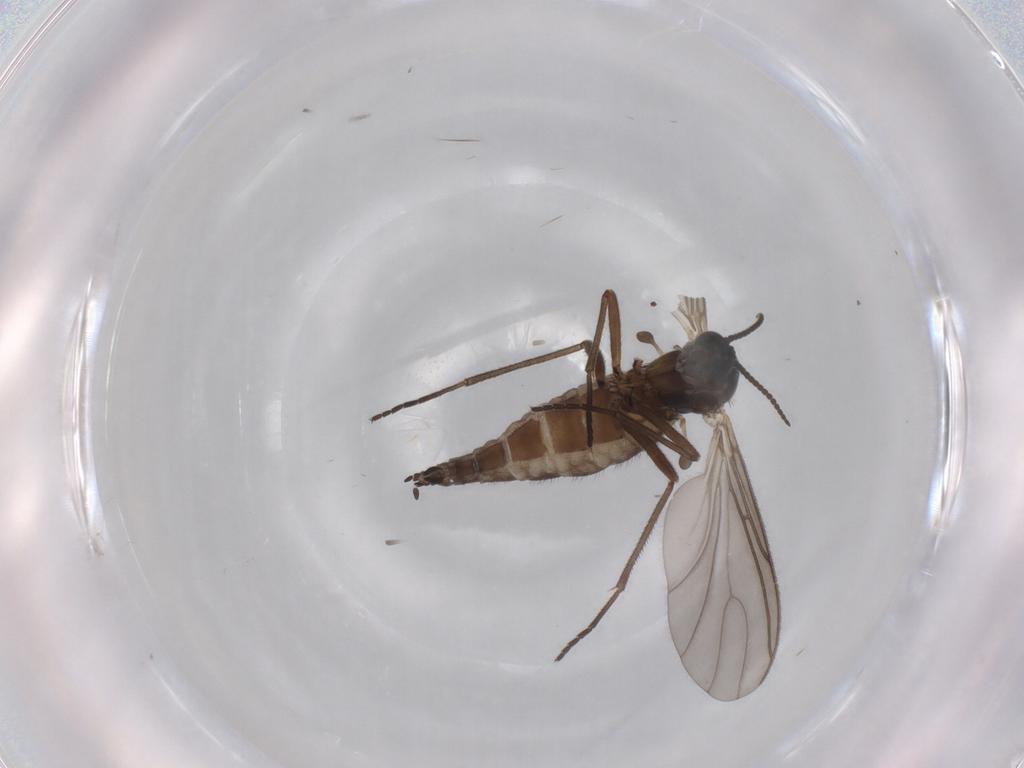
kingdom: Animalia
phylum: Arthropoda
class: Insecta
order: Diptera
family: Sciaridae
